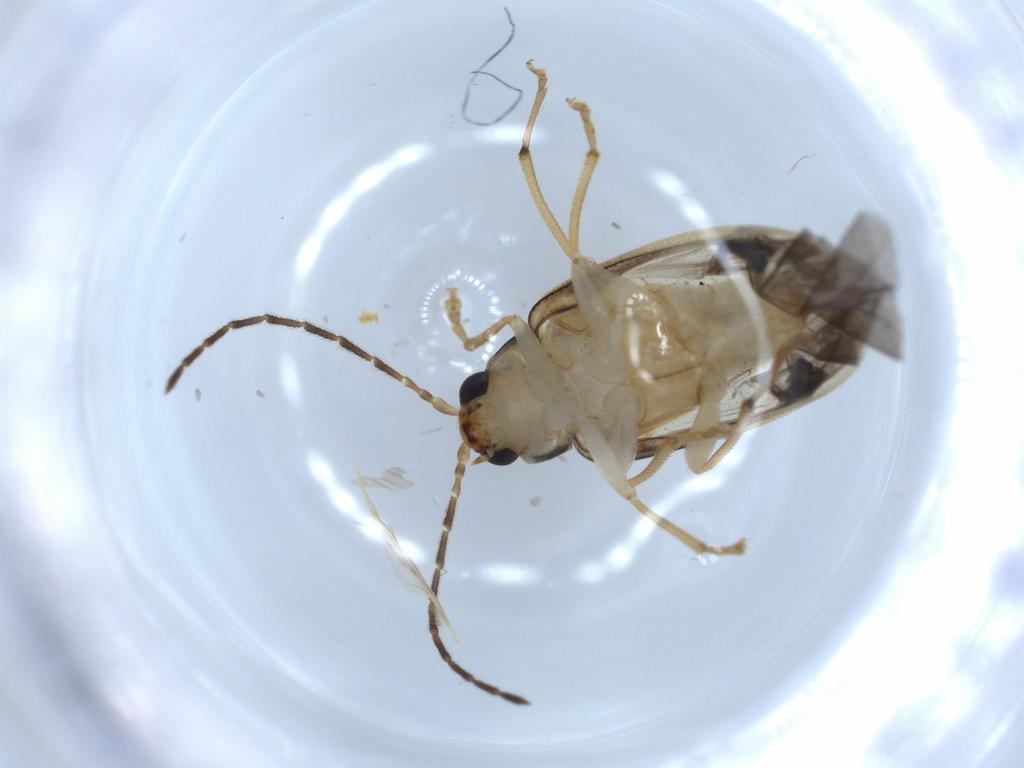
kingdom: Animalia
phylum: Arthropoda
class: Insecta
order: Coleoptera
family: Chrysomelidae
